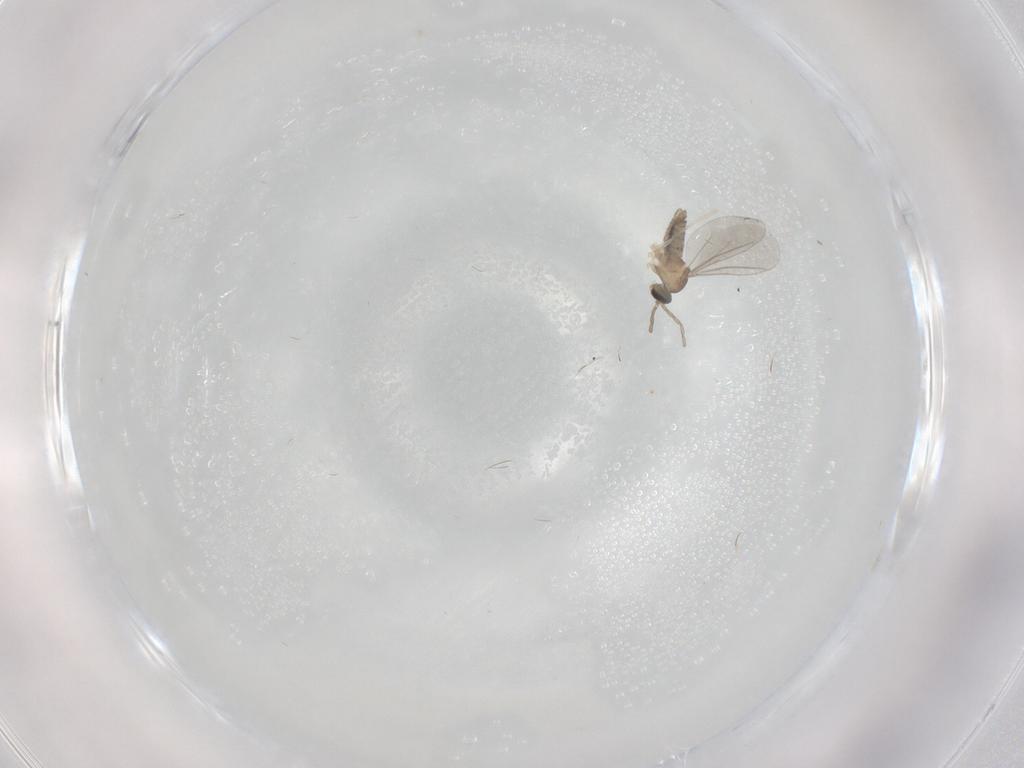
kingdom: Animalia
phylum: Arthropoda
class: Insecta
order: Diptera
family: Cecidomyiidae
